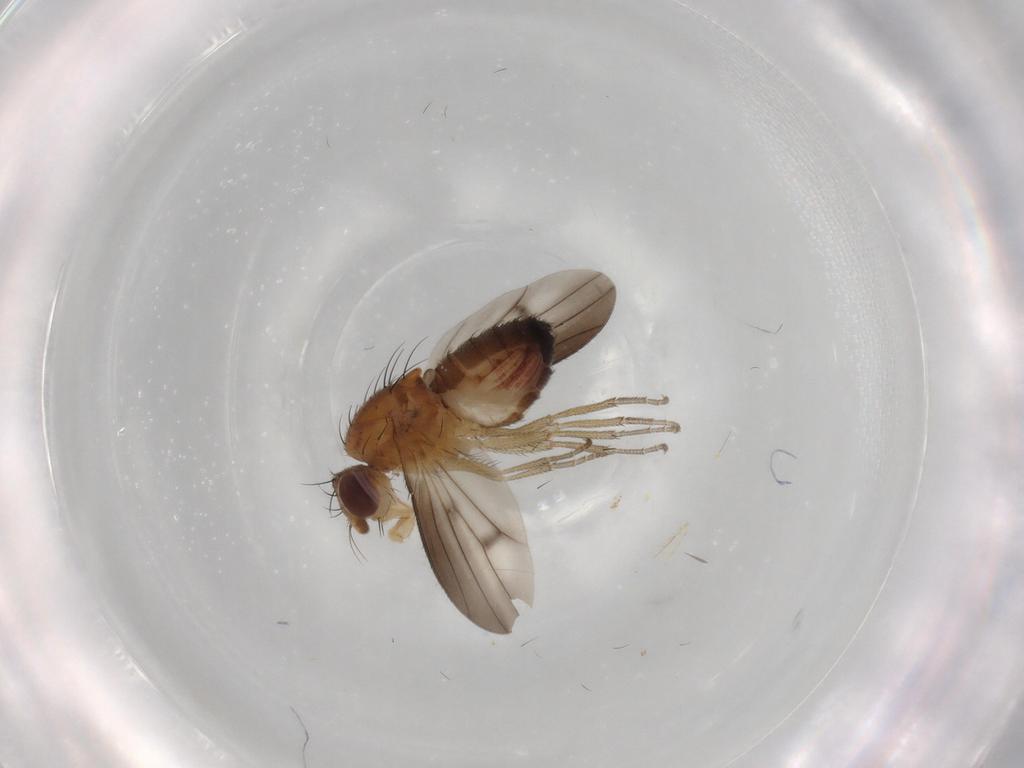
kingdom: Animalia
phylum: Arthropoda
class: Insecta
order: Diptera
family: Heleomyzidae
